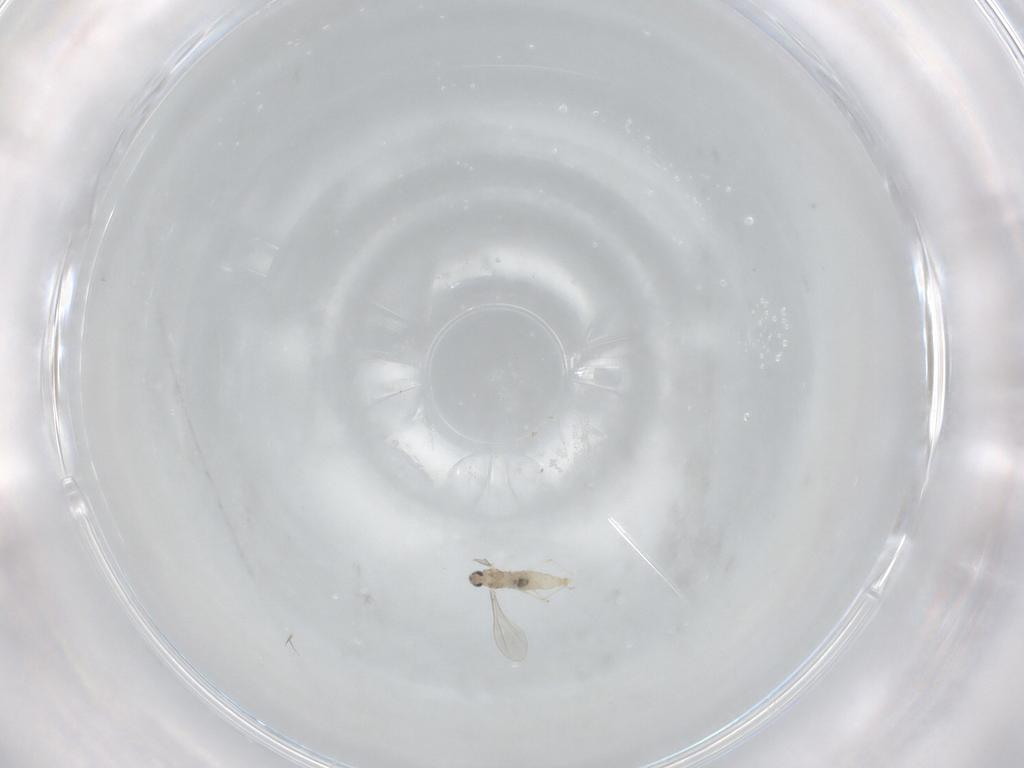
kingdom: Animalia
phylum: Arthropoda
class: Insecta
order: Diptera
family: Cecidomyiidae
